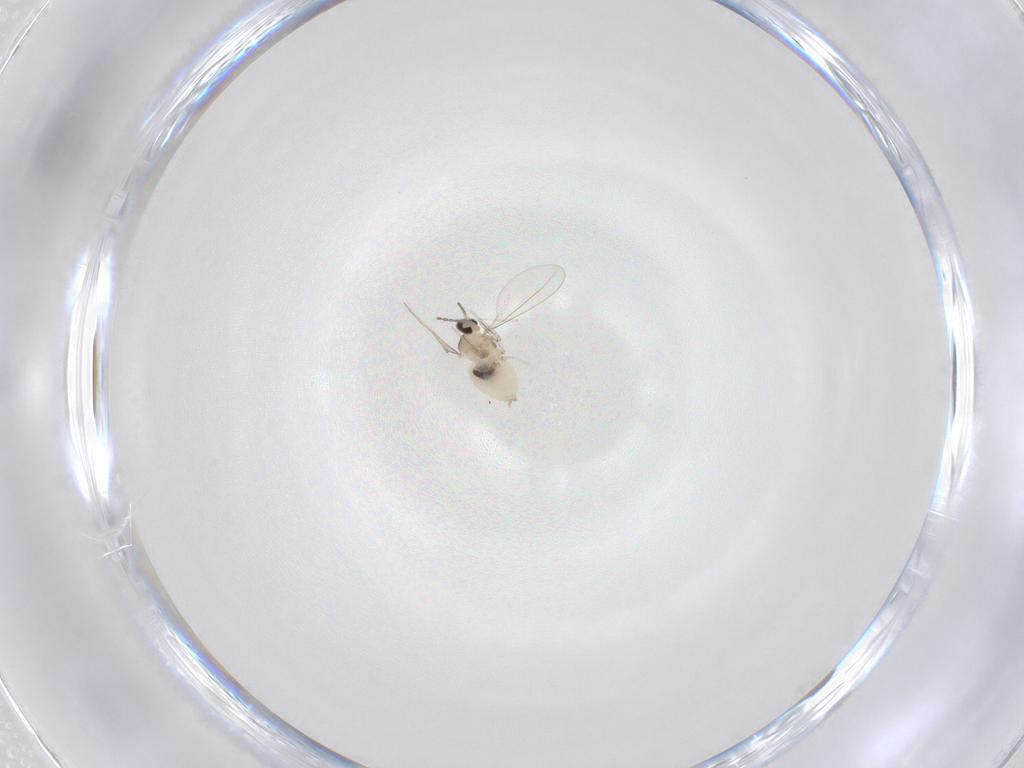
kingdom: Animalia
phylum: Arthropoda
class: Insecta
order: Diptera
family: Cecidomyiidae
